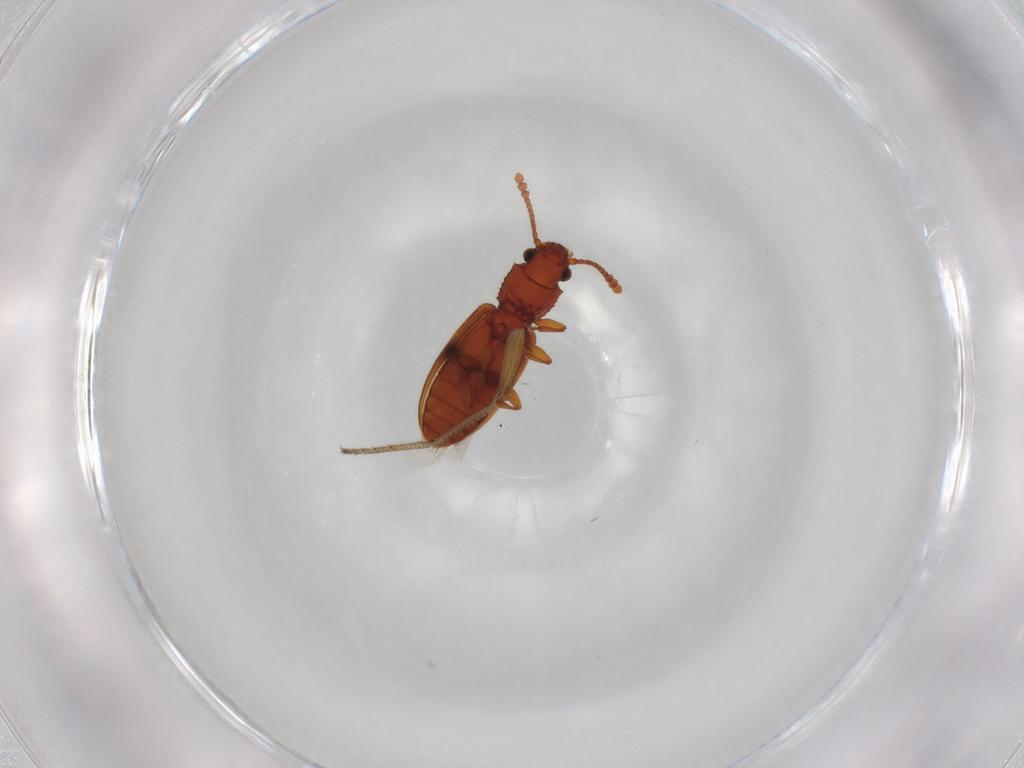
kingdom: Animalia
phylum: Arthropoda
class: Insecta
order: Coleoptera
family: Silvanidae
